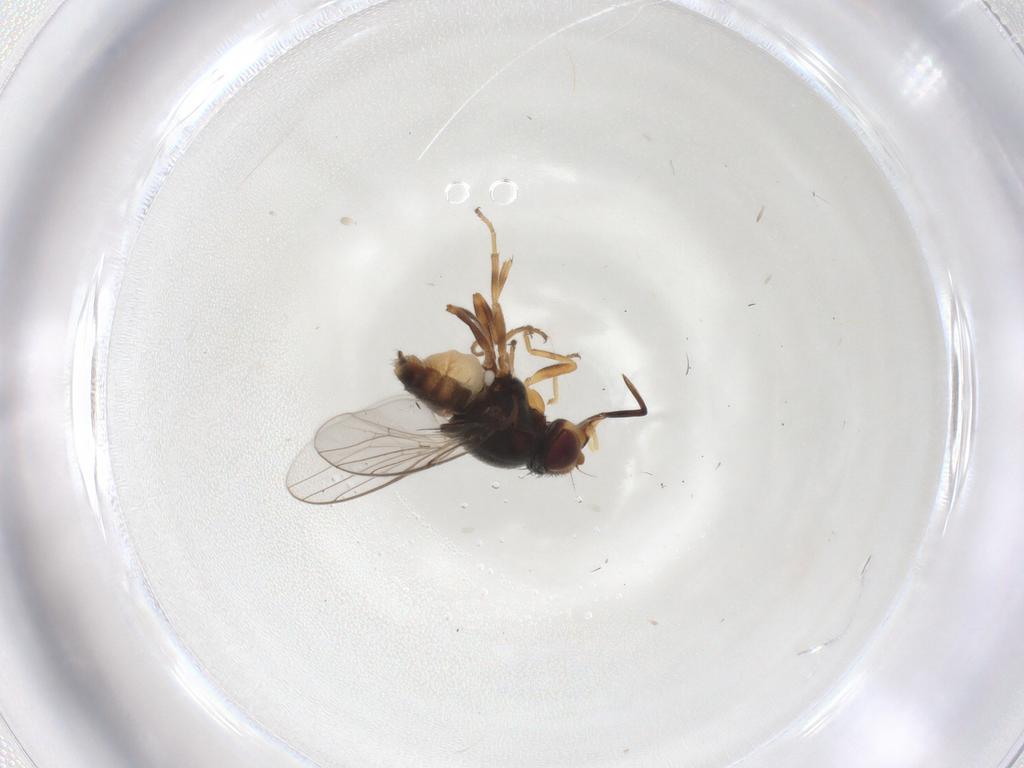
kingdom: Animalia
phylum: Arthropoda
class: Insecta
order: Diptera
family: Chloropidae
